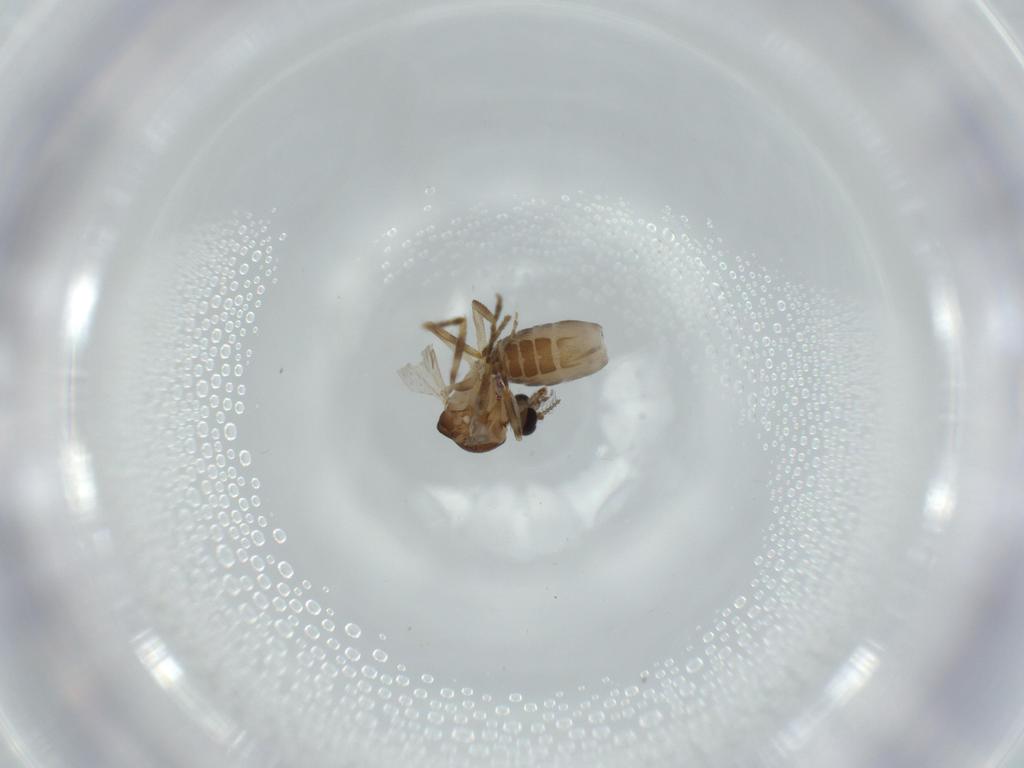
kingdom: Animalia
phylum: Arthropoda
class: Insecta
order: Diptera
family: Ceratopogonidae
